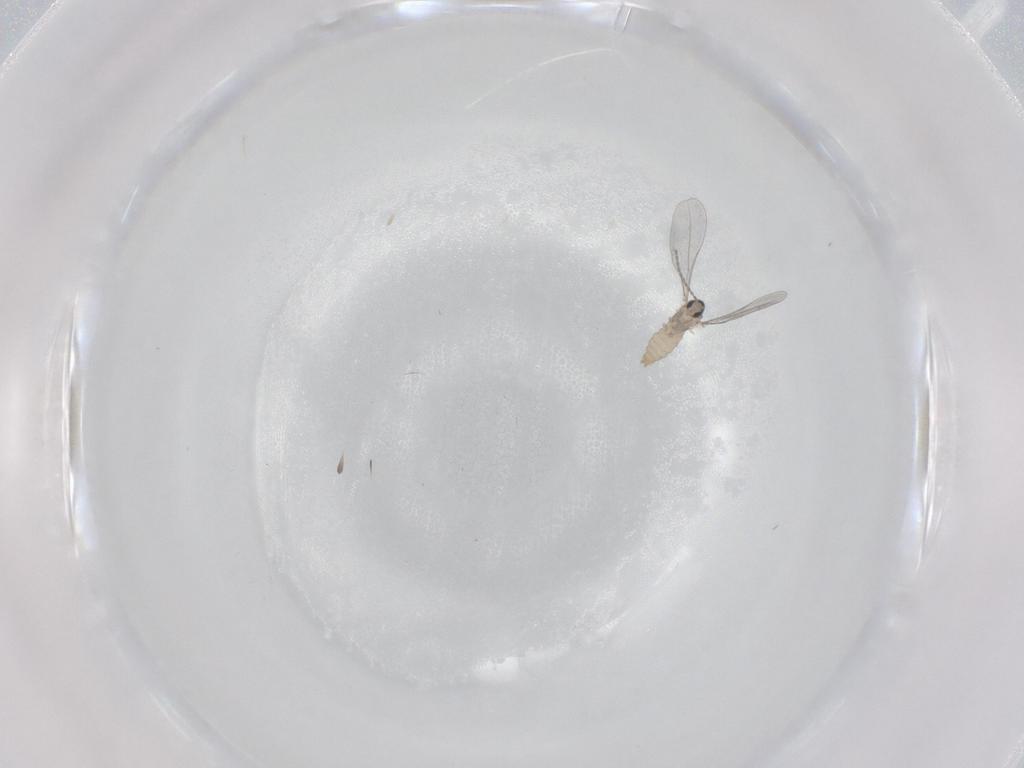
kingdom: Animalia
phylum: Arthropoda
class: Insecta
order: Diptera
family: Cecidomyiidae
